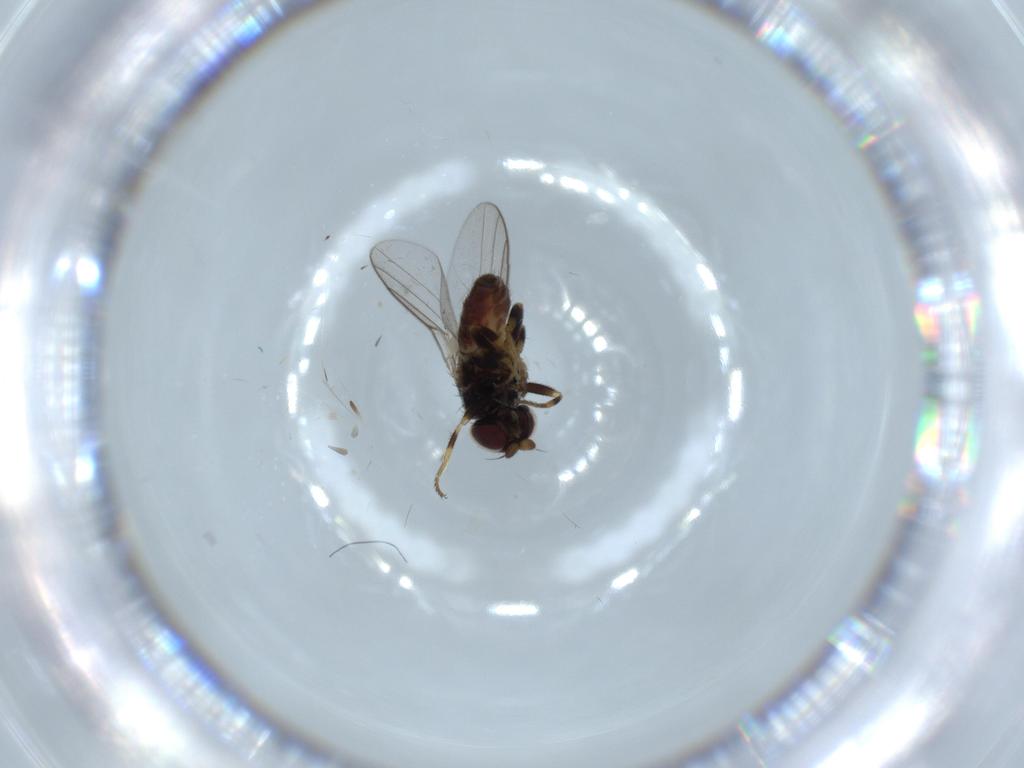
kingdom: Animalia
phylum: Arthropoda
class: Insecta
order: Diptera
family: Chloropidae
